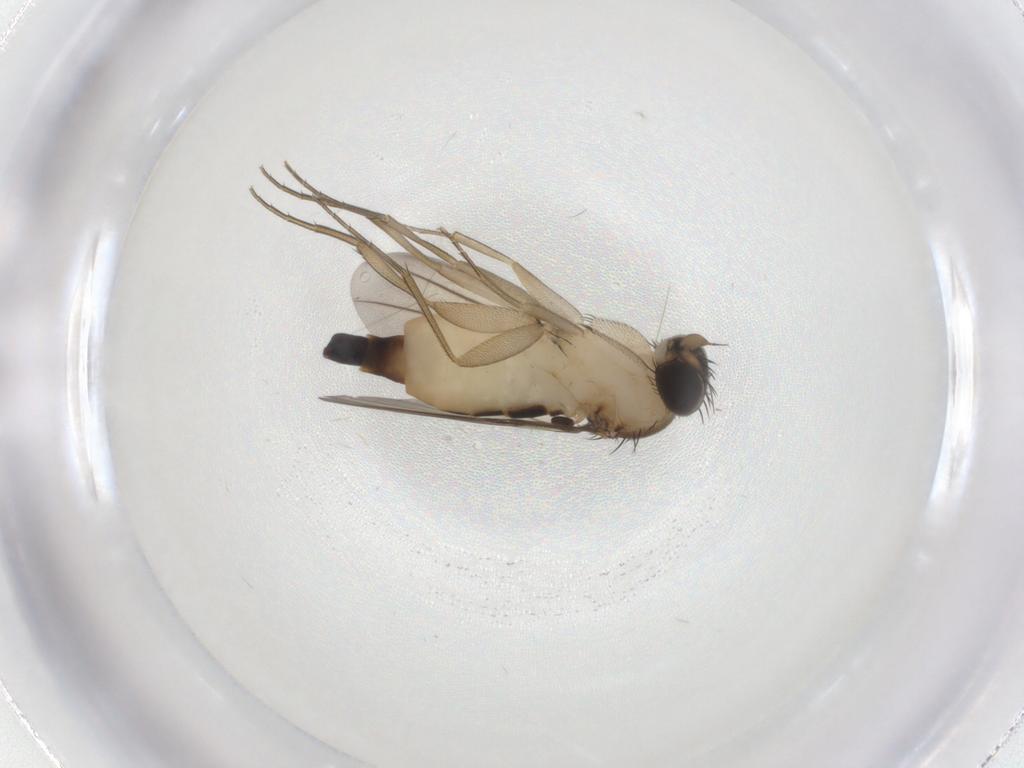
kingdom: Animalia
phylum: Arthropoda
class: Insecta
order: Diptera
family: Phoridae
